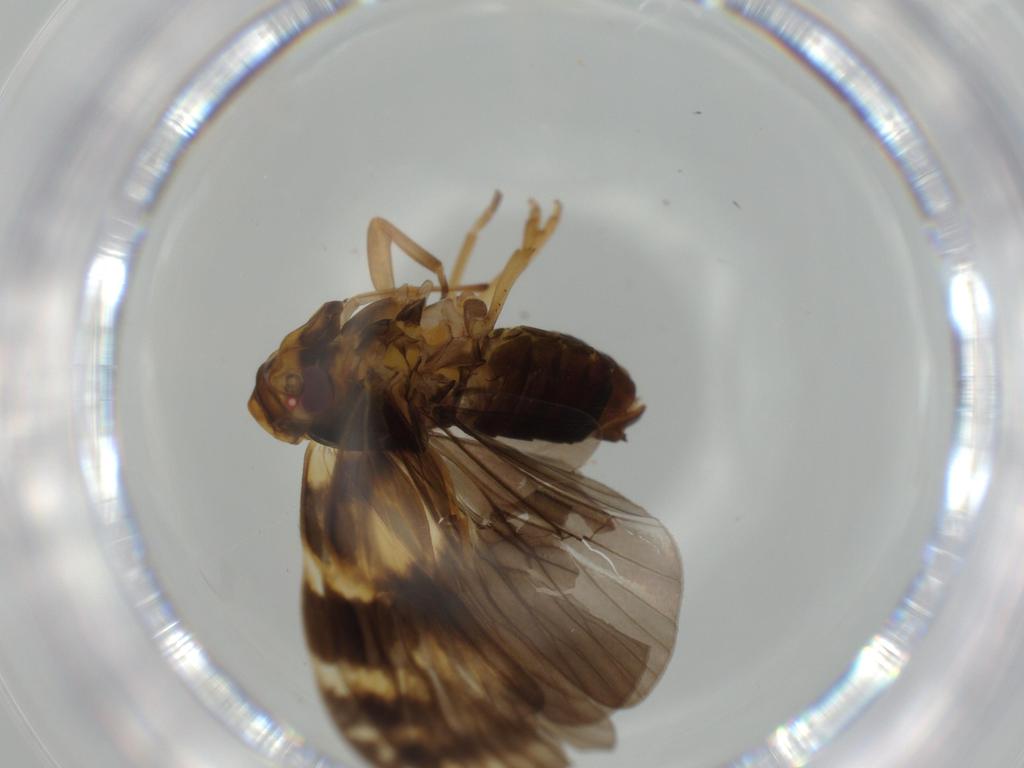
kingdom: Animalia
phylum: Arthropoda
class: Insecta
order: Hemiptera
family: Cixiidae
